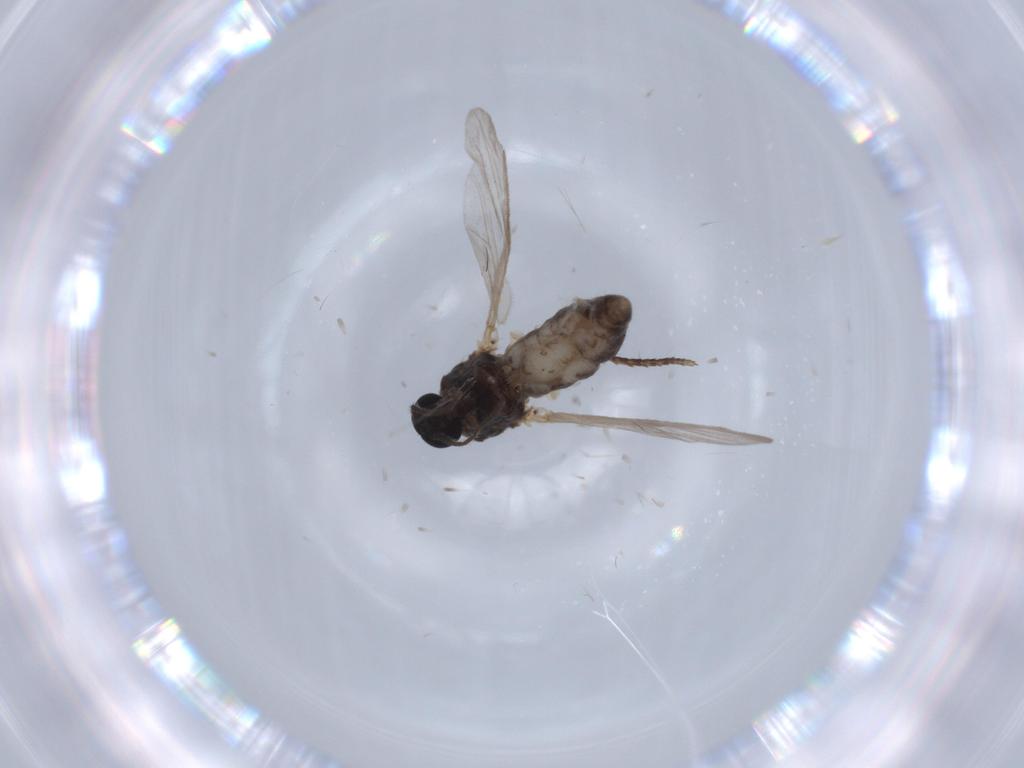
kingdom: Animalia
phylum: Arthropoda
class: Insecta
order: Diptera
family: Ceratopogonidae
